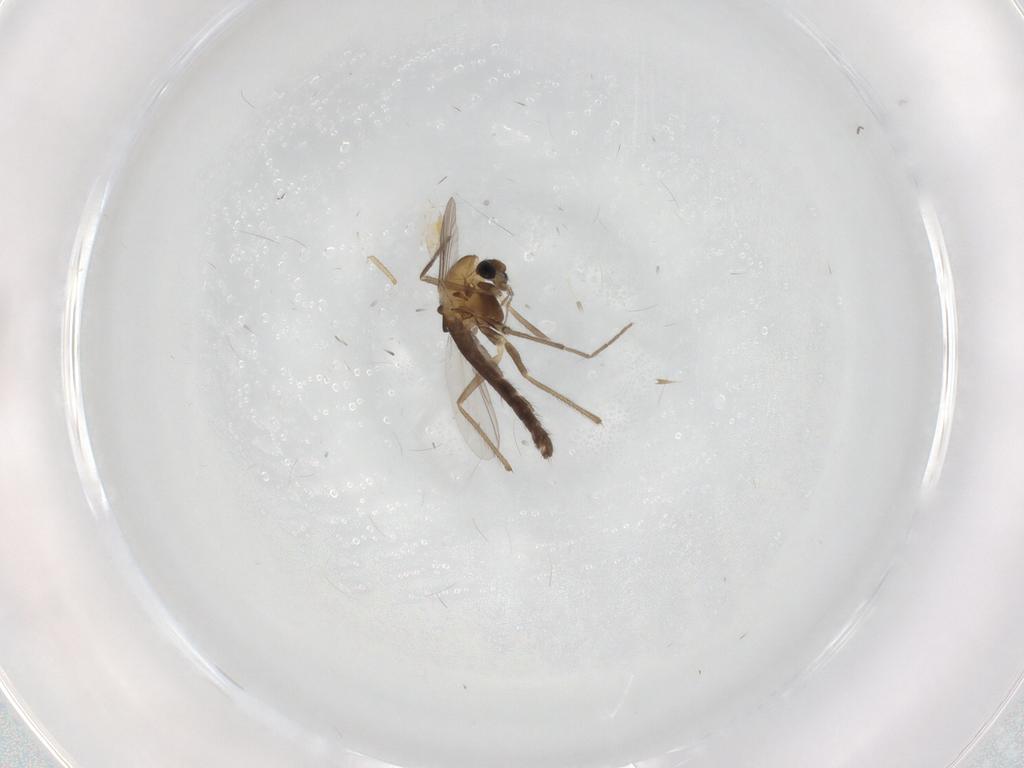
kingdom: Animalia
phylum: Arthropoda
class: Insecta
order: Diptera
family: Chironomidae
